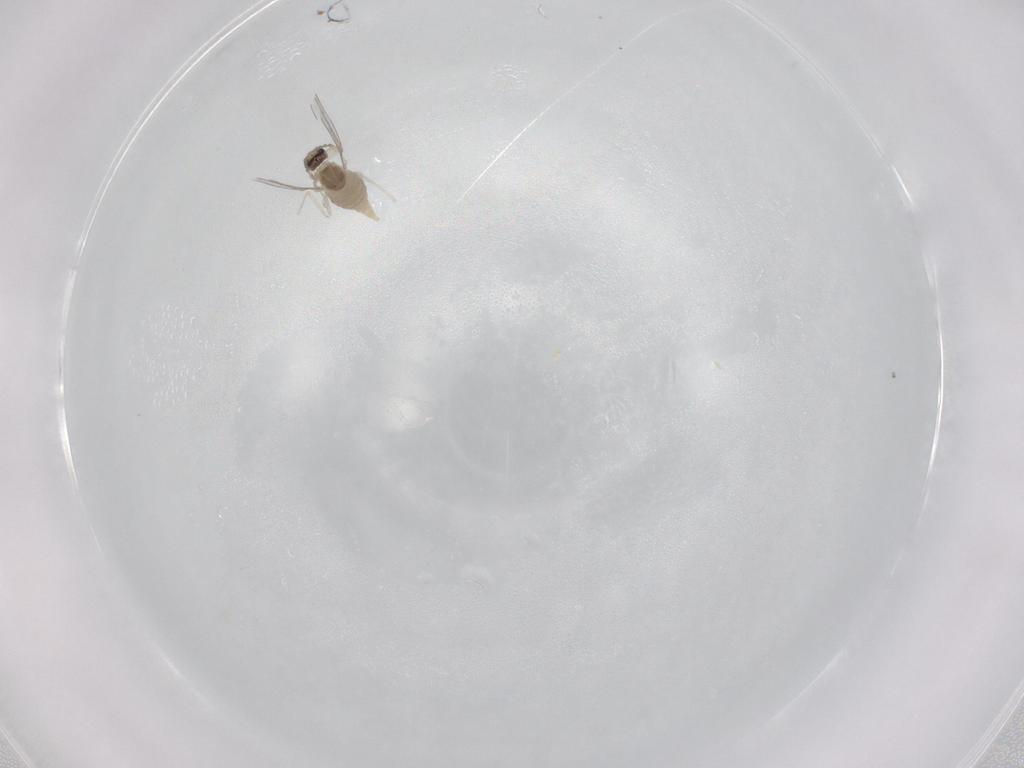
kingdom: Animalia
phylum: Arthropoda
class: Insecta
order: Diptera
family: Cecidomyiidae
